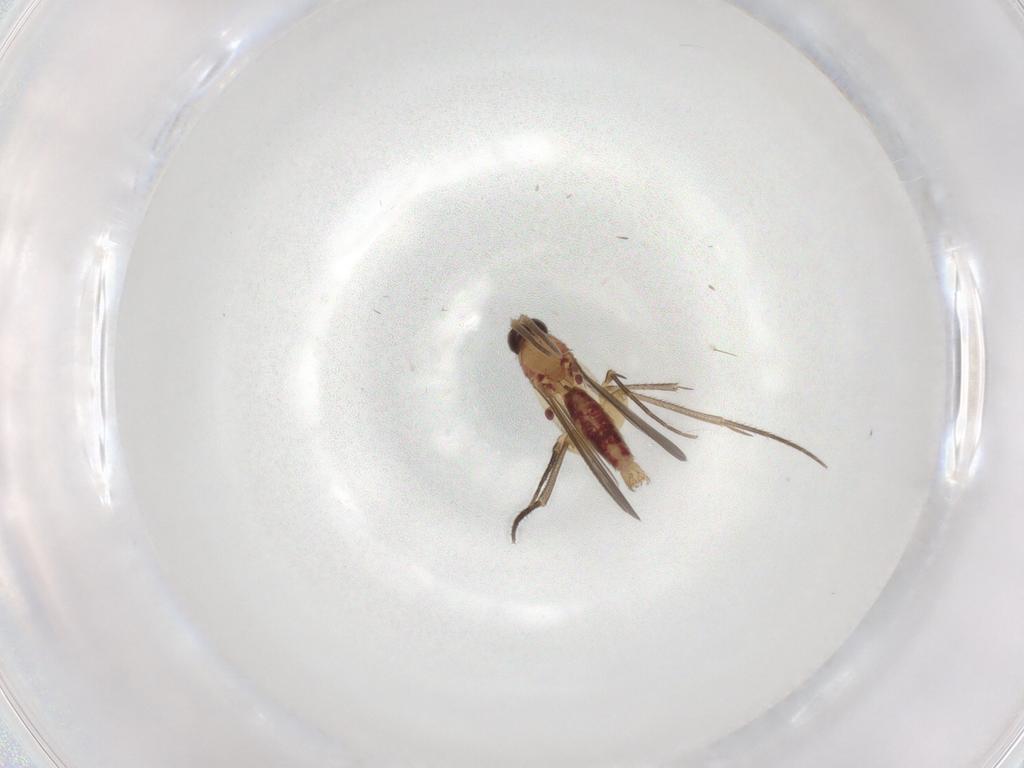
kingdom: Animalia
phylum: Arthropoda
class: Insecta
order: Diptera
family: Mycetophilidae
